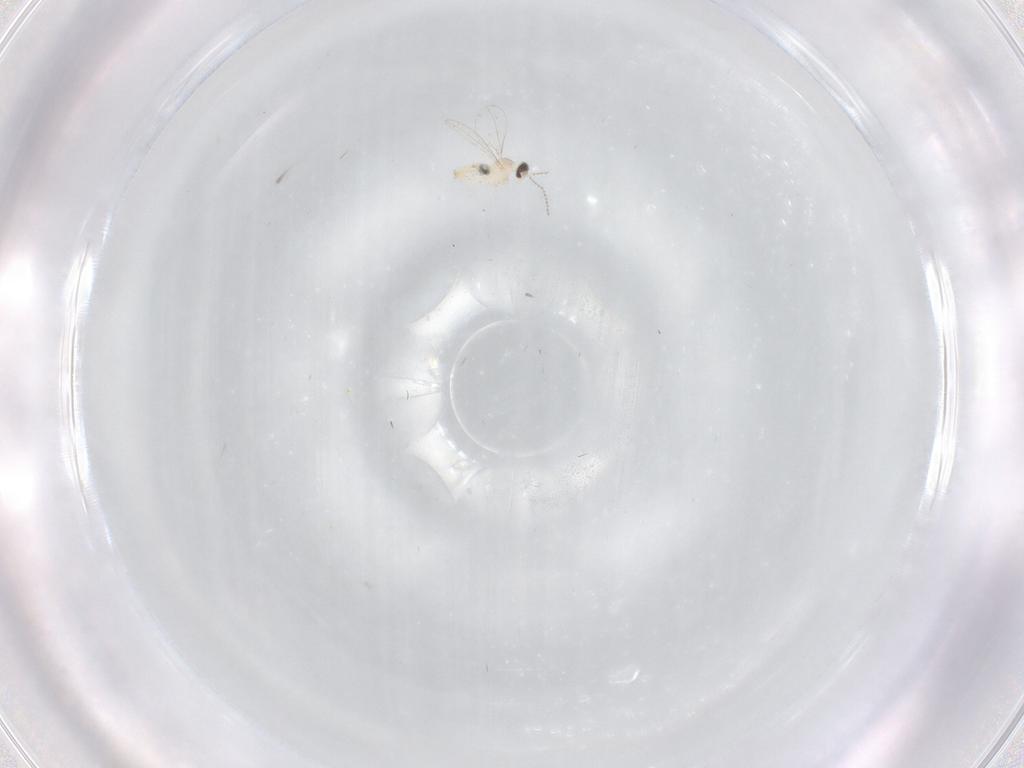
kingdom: Animalia
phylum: Arthropoda
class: Insecta
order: Diptera
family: Cecidomyiidae
